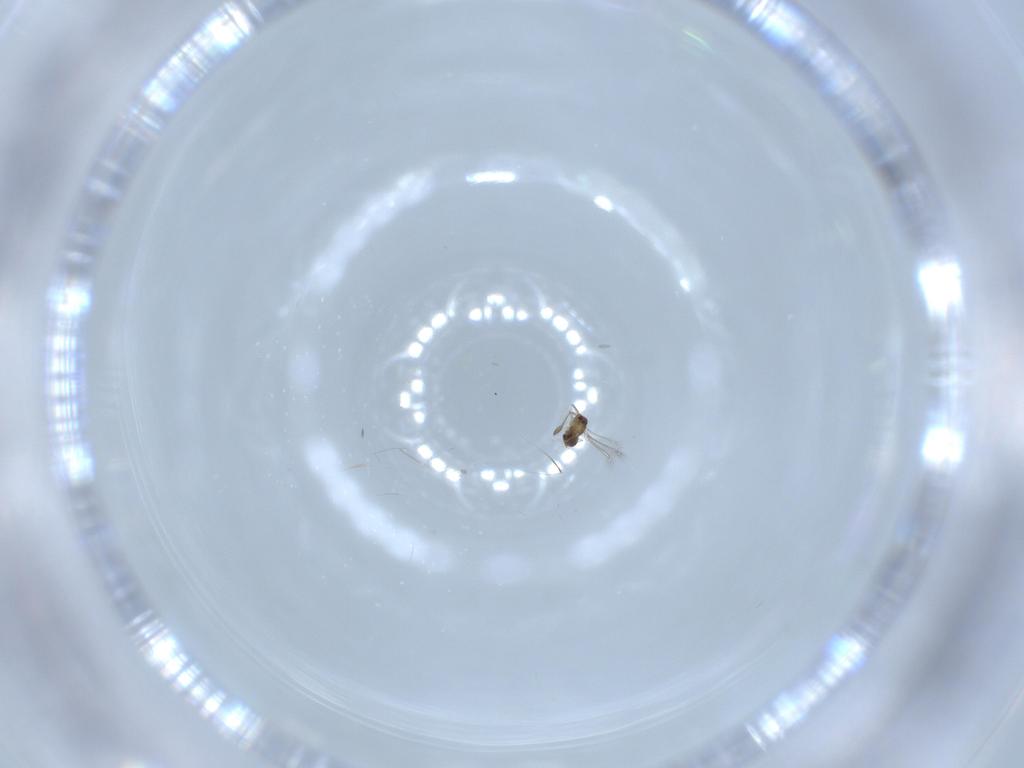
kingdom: Animalia
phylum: Arthropoda
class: Insecta
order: Hymenoptera
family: Mymaridae
